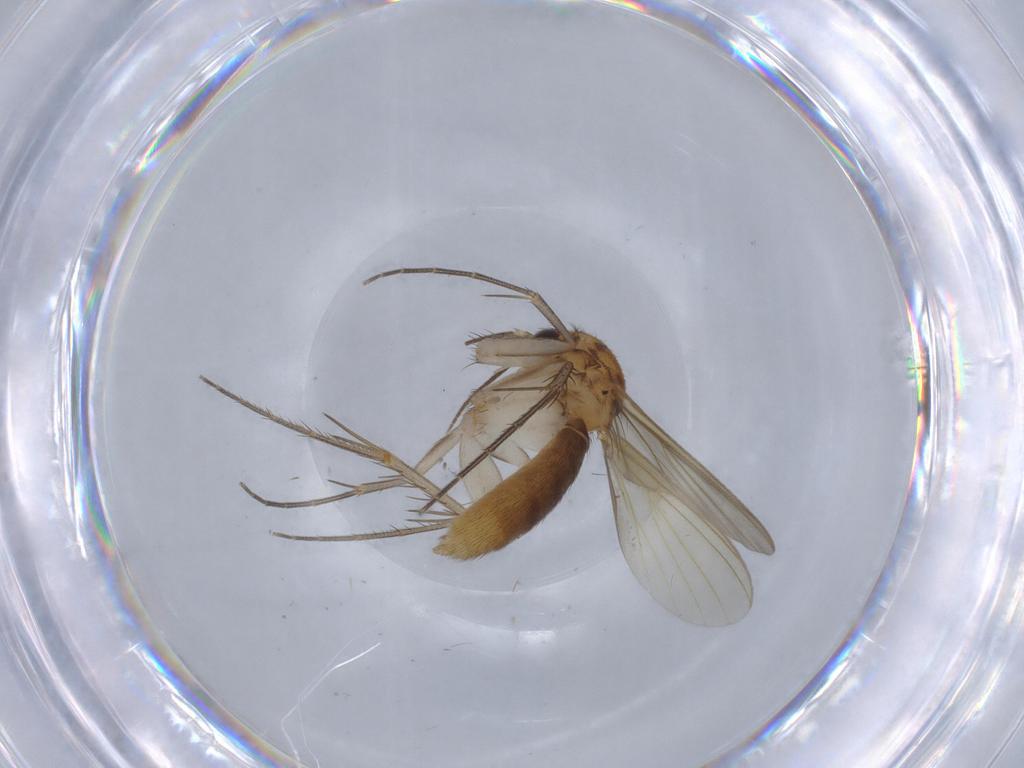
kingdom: Animalia
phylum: Arthropoda
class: Insecta
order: Diptera
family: Mycetophilidae
